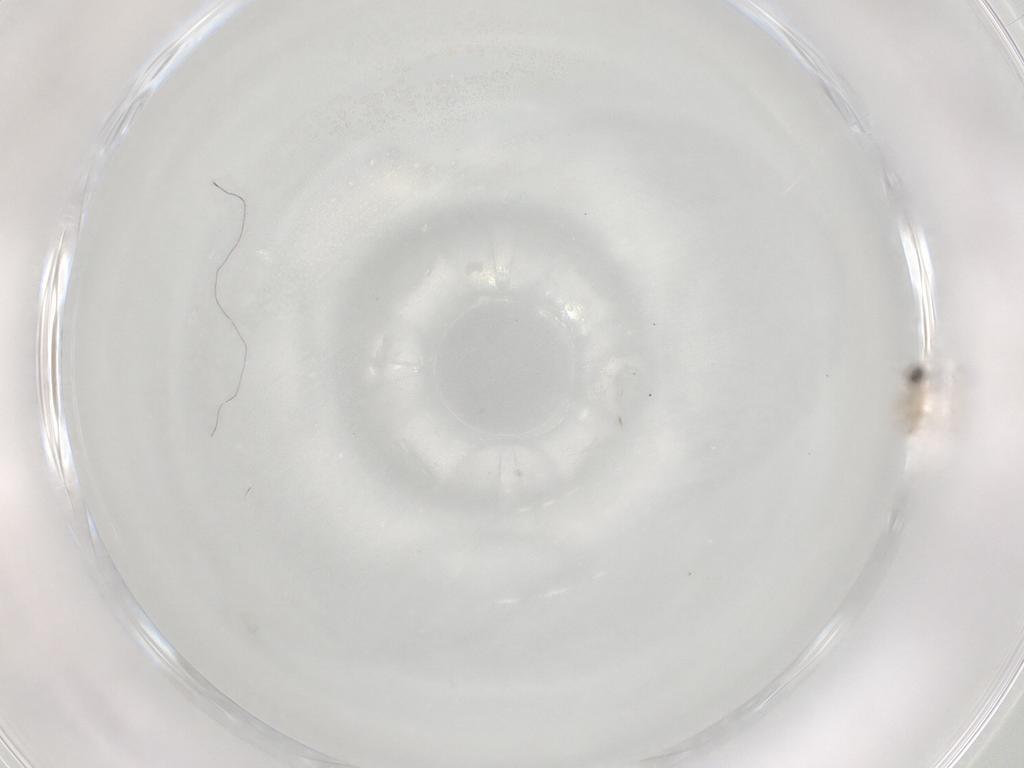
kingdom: Animalia
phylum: Arthropoda
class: Insecta
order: Diptera
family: Cecidomyiidae
